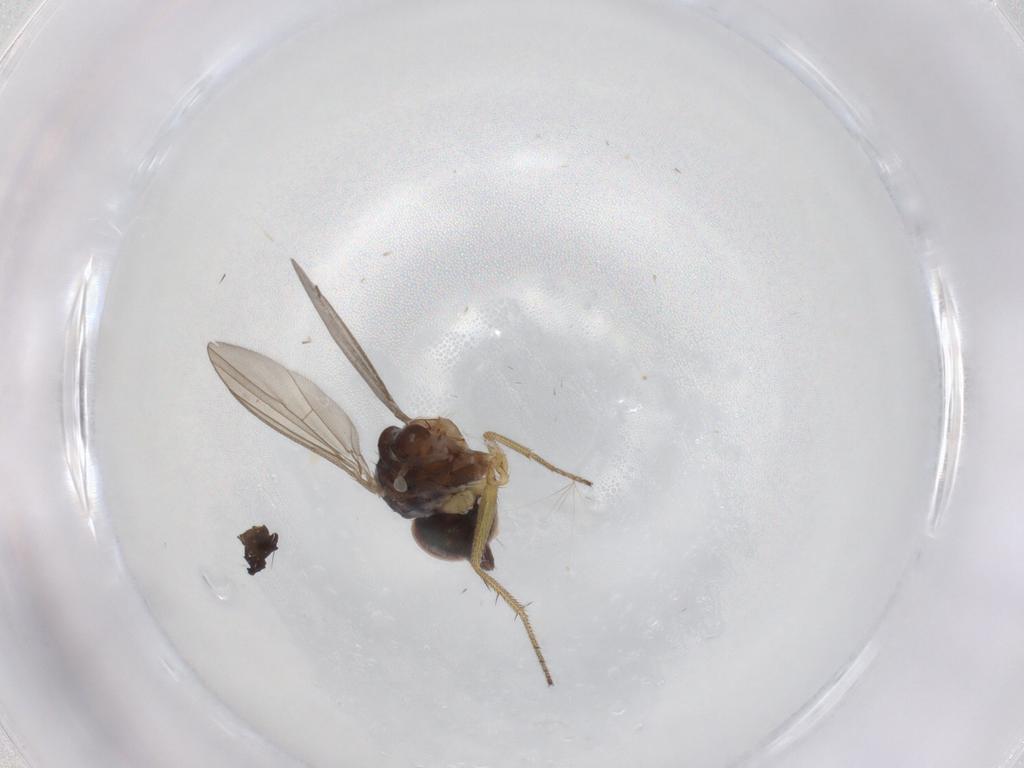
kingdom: Animalia
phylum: Arthropoda
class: Insecta
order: Diptera
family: Dolichopodidae
